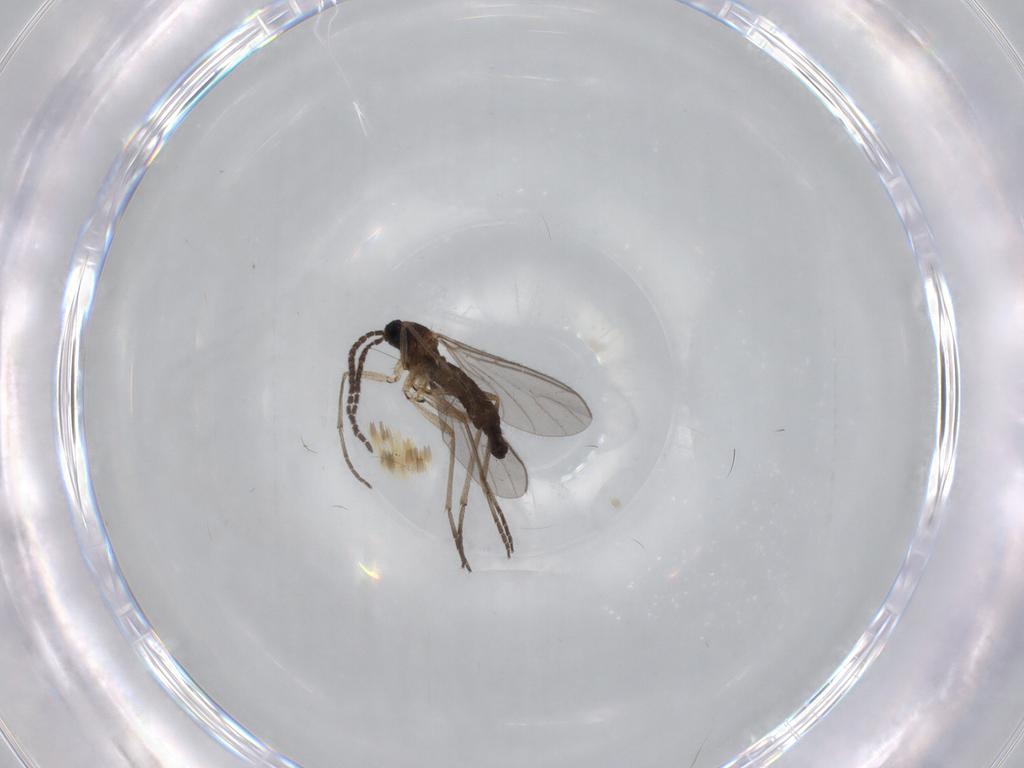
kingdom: Animalia
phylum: Arthropoda
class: Insecta
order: Diptera
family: Sciaridae
